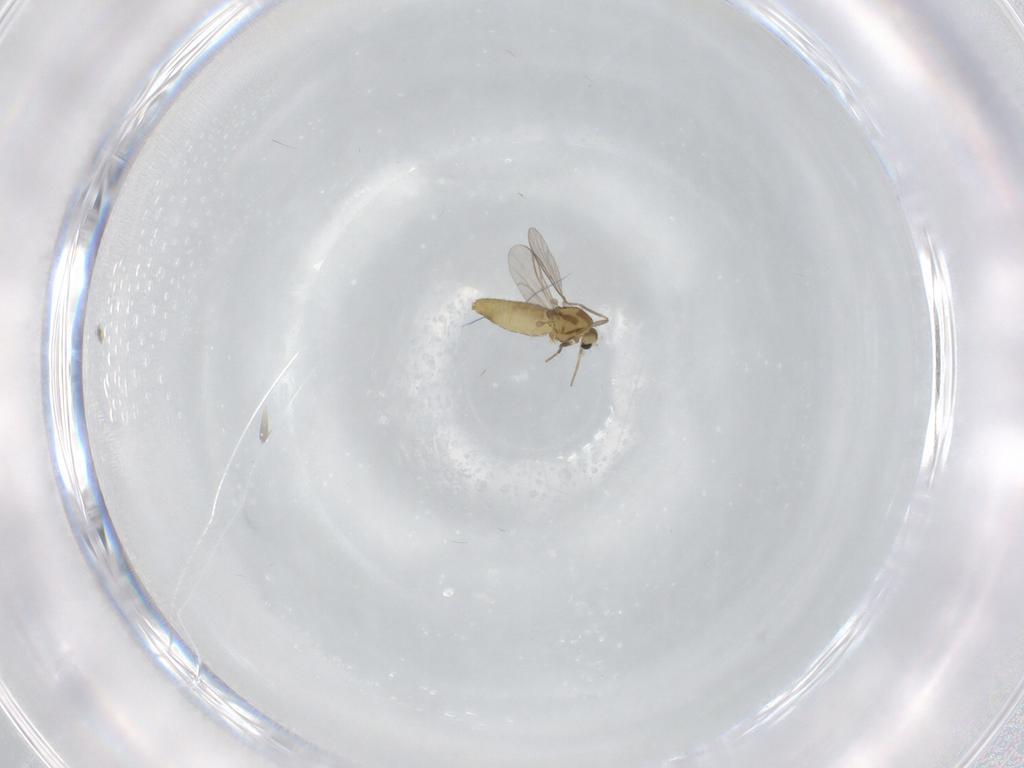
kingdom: Animalia
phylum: Arthropoda
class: Insecta
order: Diptera
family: Chironomidae
